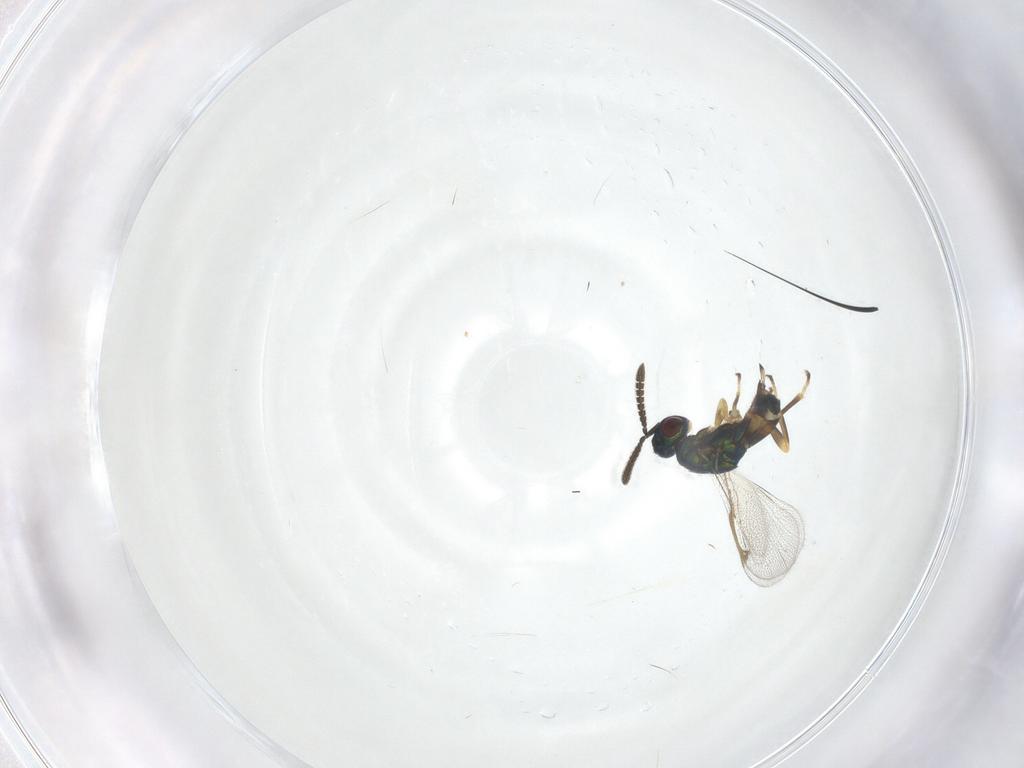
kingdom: Animalia
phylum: Arthropoda
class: Insecta
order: Hymenoptera
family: Torymidae
